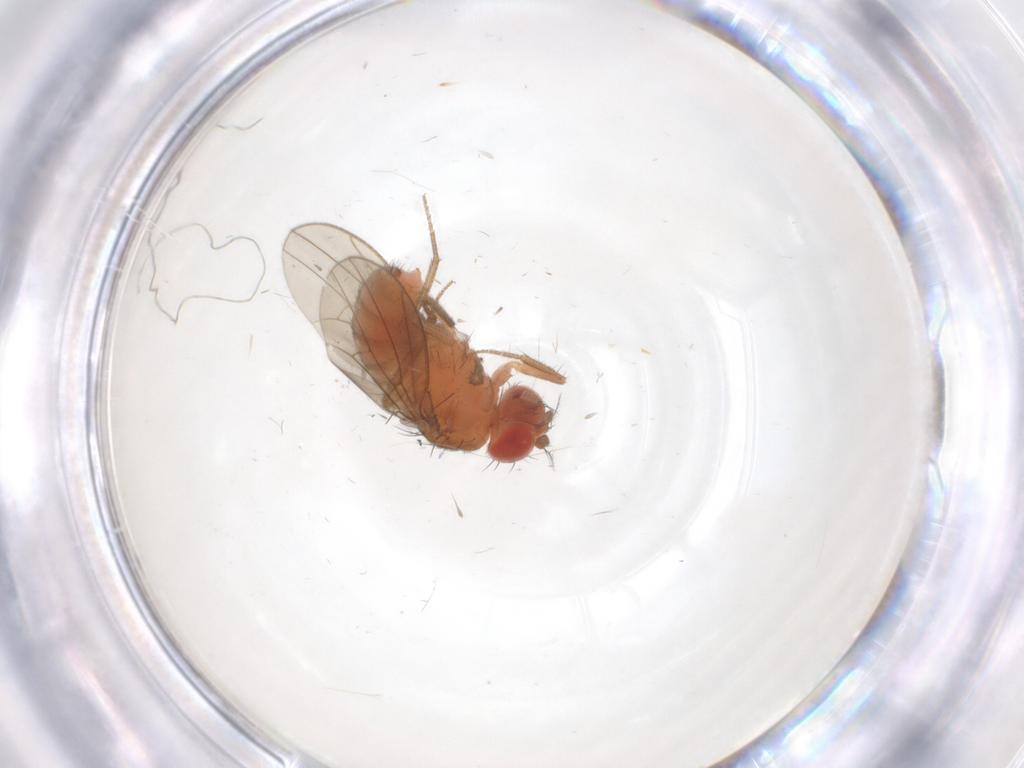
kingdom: Animalia
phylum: Arthropoda
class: Insecta
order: Diptera
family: Drosophilidae
